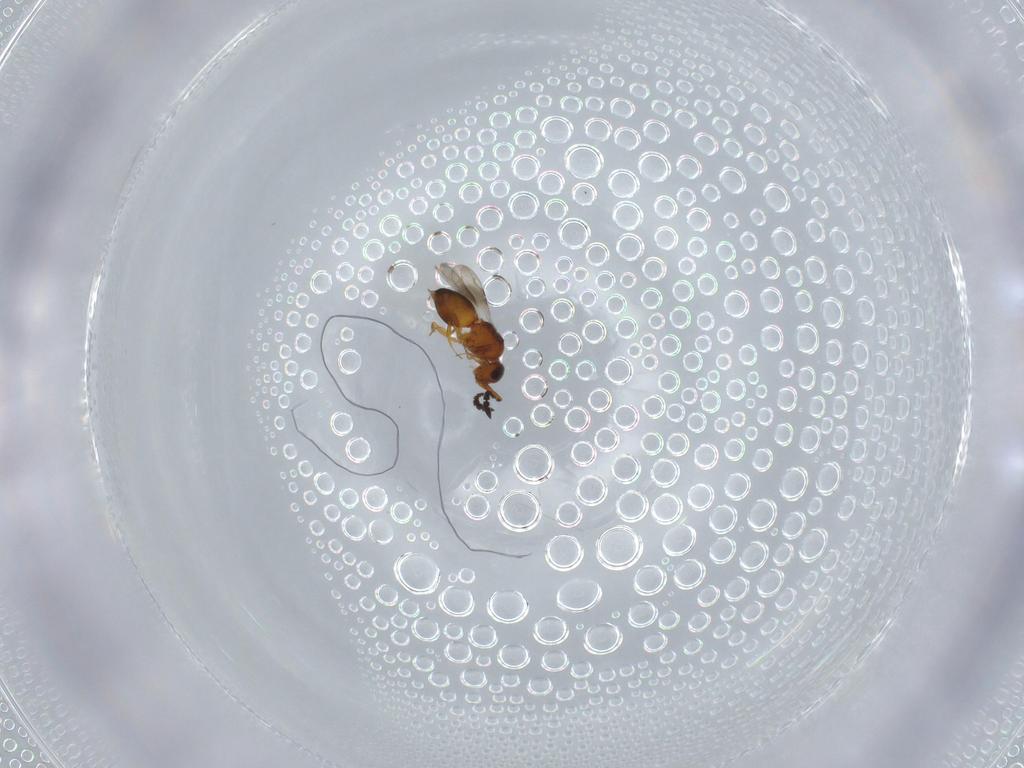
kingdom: Animalia
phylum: Arthropoda
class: Insecta
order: Hymenoptera
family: Ceraphronidae
